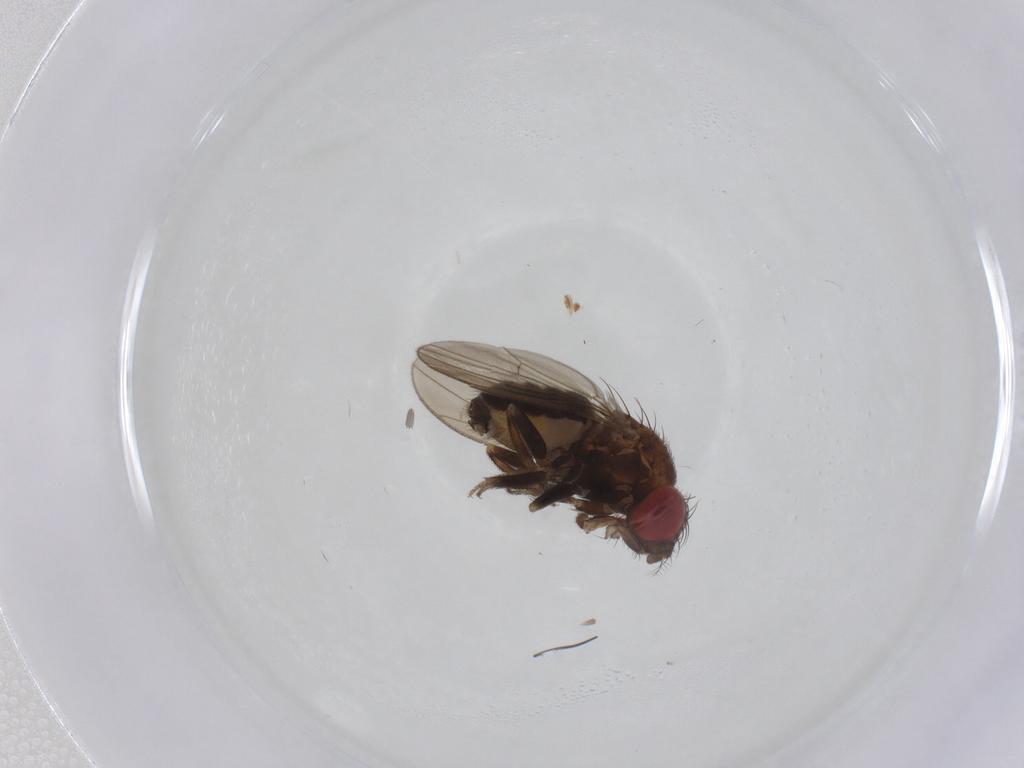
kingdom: Animalia
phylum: Arthropoda
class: Insecta
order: Diptera
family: Drosophilidae
